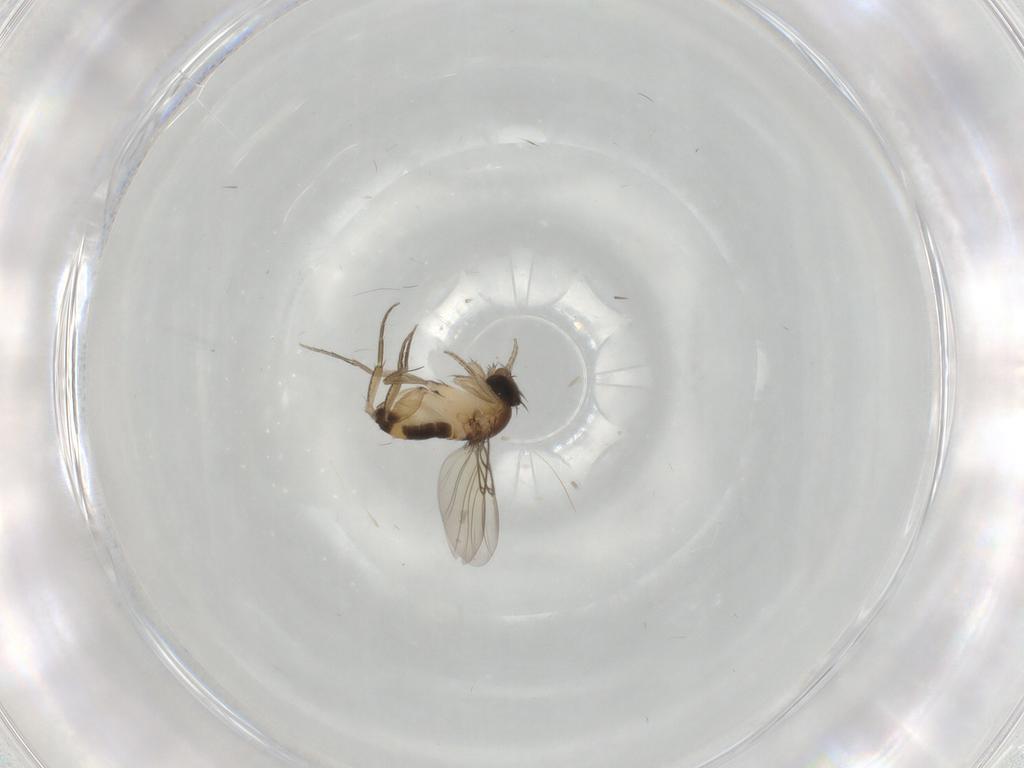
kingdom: Animalia
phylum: Arthropoda
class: Insecta
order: Diptera
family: Phoridae
